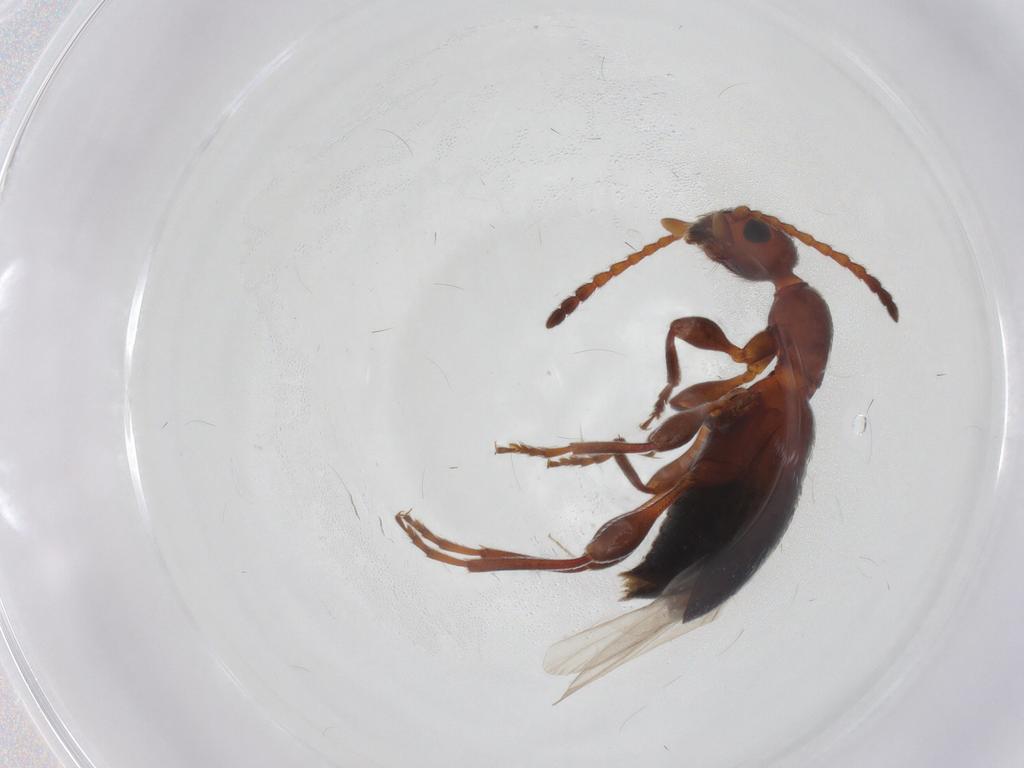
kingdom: Animalia
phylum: Arthropoda
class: Insecta
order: Coleoptera
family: Anthicidae
